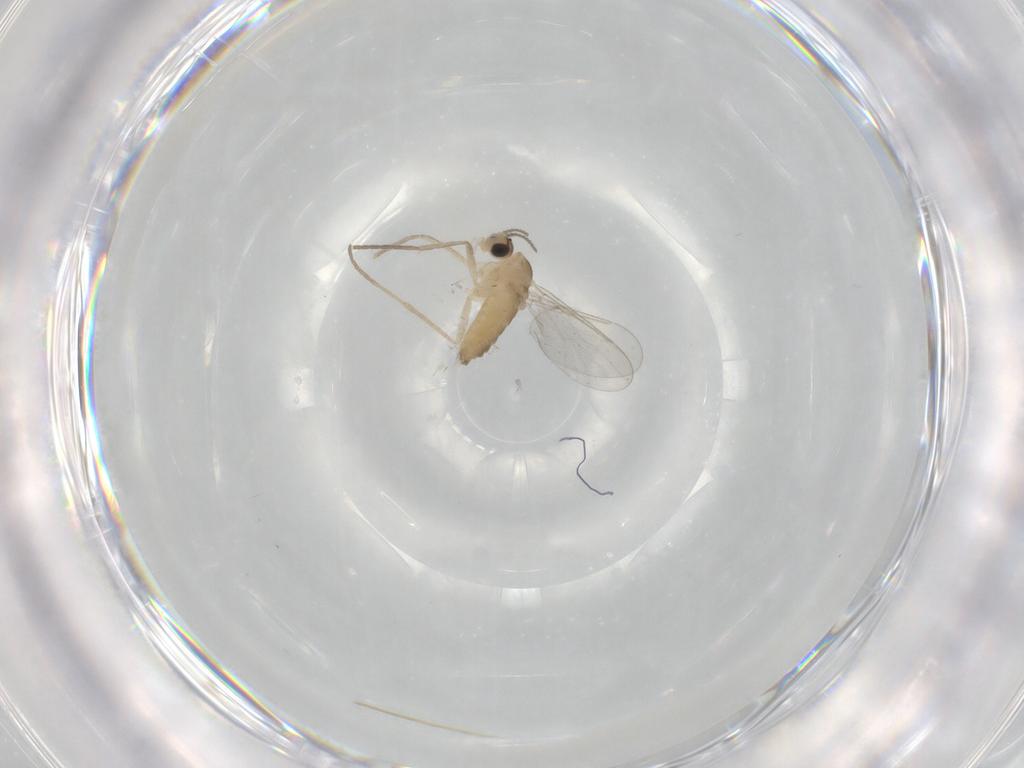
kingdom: Animalia
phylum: Arthropoda
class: Insecta
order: Diptera
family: Cecidomyiidae
